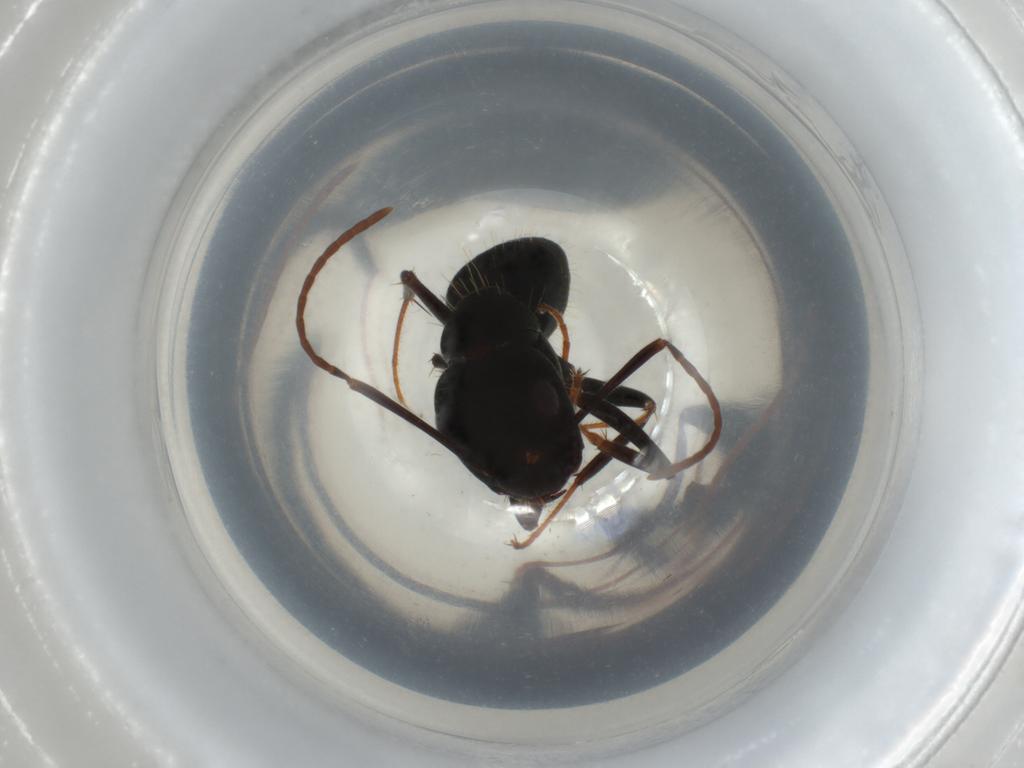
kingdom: Animalia
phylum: Arthropoda
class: Insecta
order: Hymenoptera
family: Formicidae
